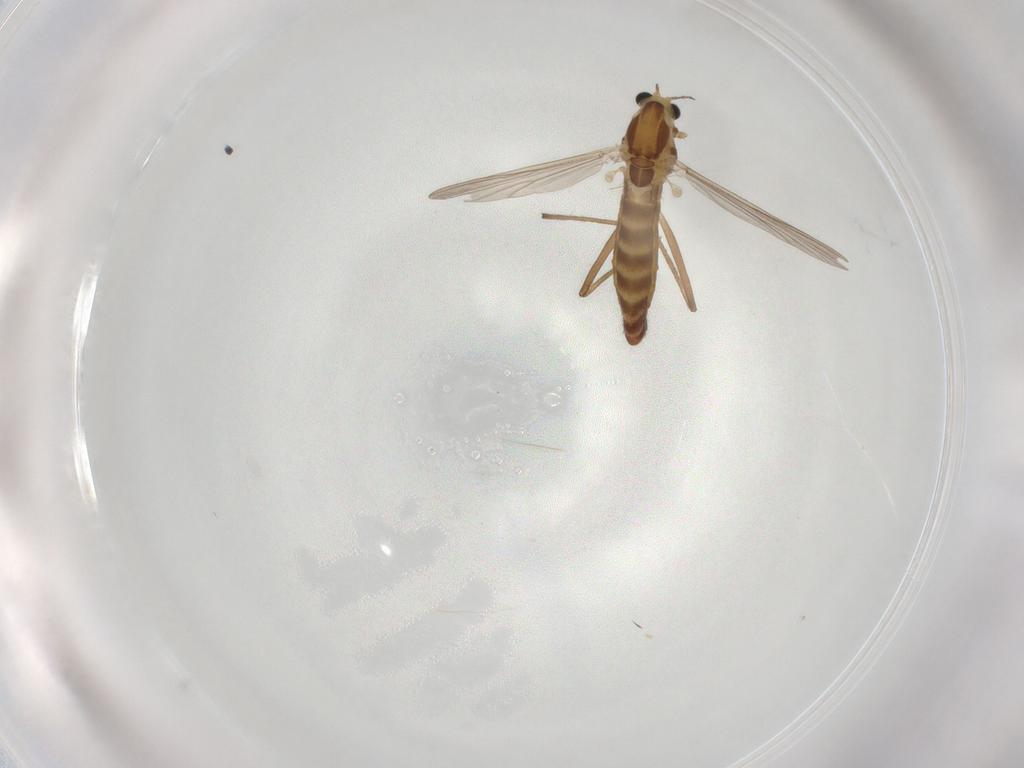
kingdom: Animalia
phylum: Arthropoda
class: Insecta
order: Diptera
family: Chironomidae
